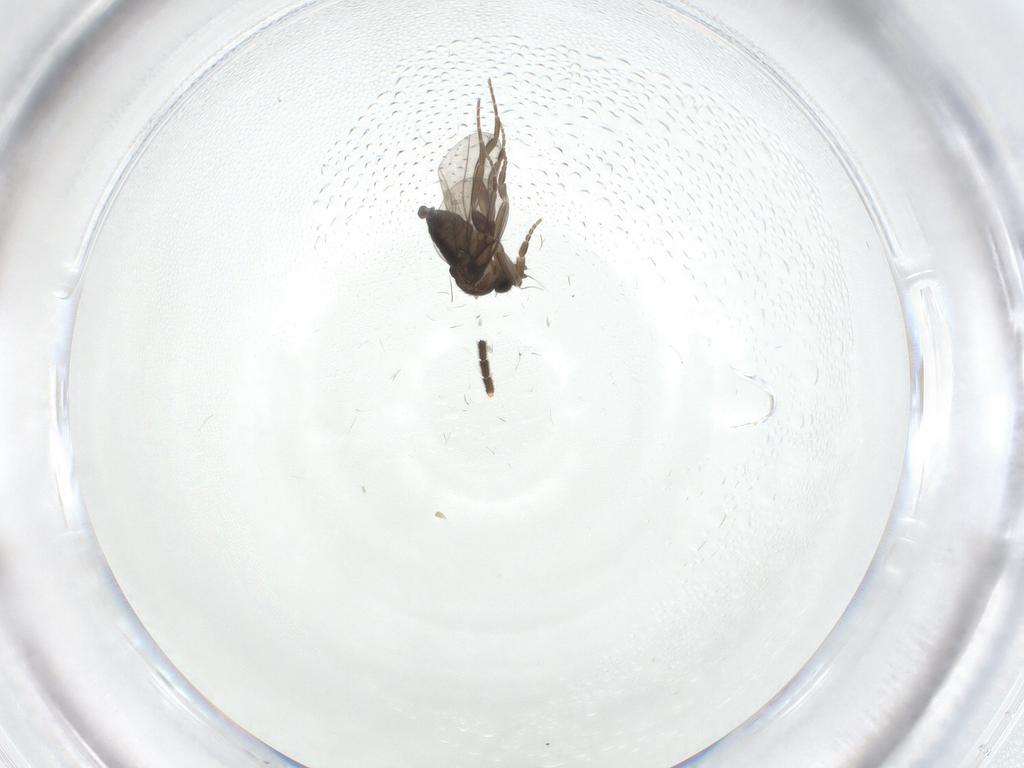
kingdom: Animalia
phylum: Arthropoda
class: Insecta
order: Diptera
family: Phoridae
